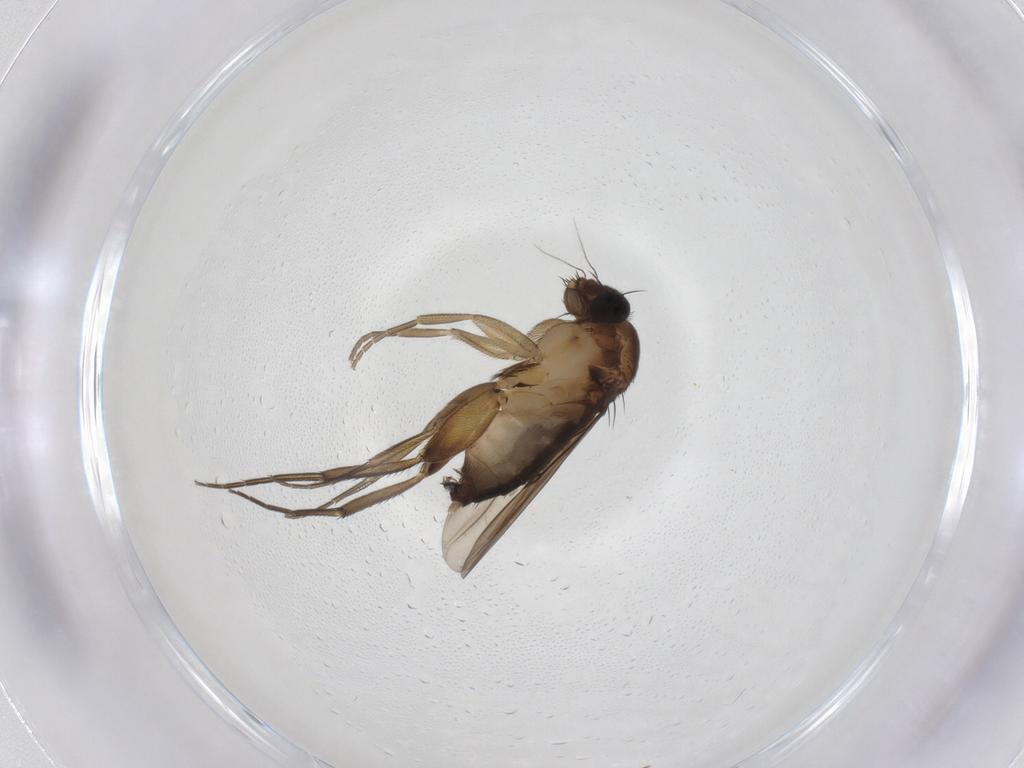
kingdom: Animalia
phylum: Arthropoda
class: Insecta
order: Diptera
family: Phoridae
